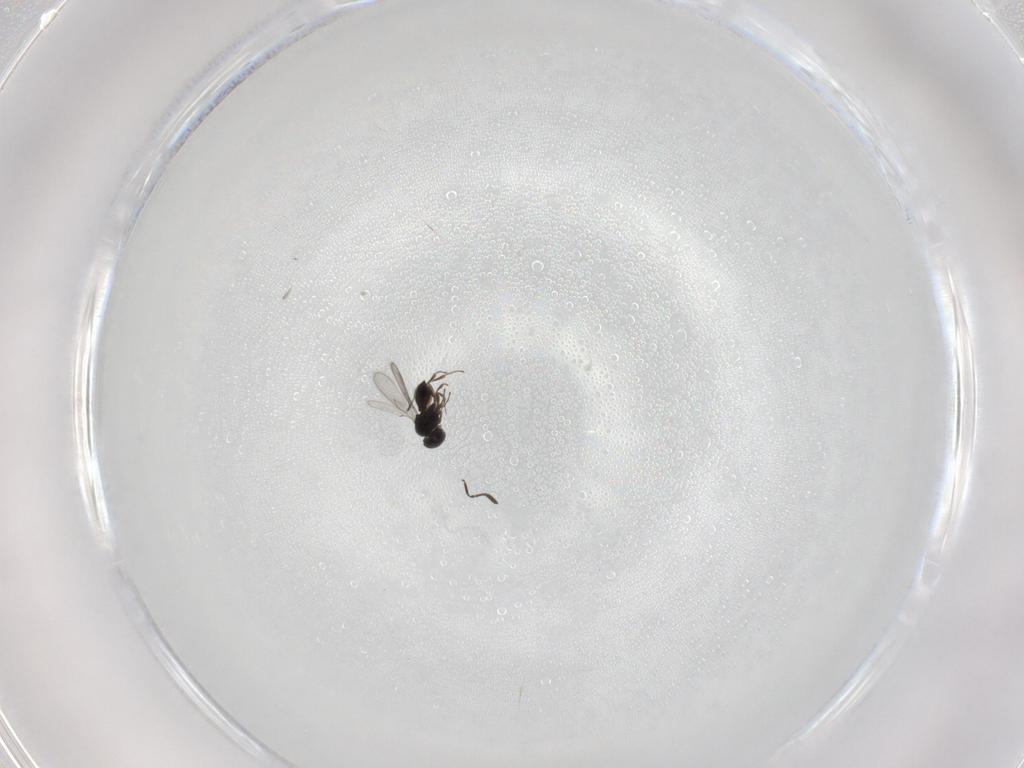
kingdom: Animalia
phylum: Arthropoda
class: Insecta
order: Hymenoptera
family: Scelionidae
